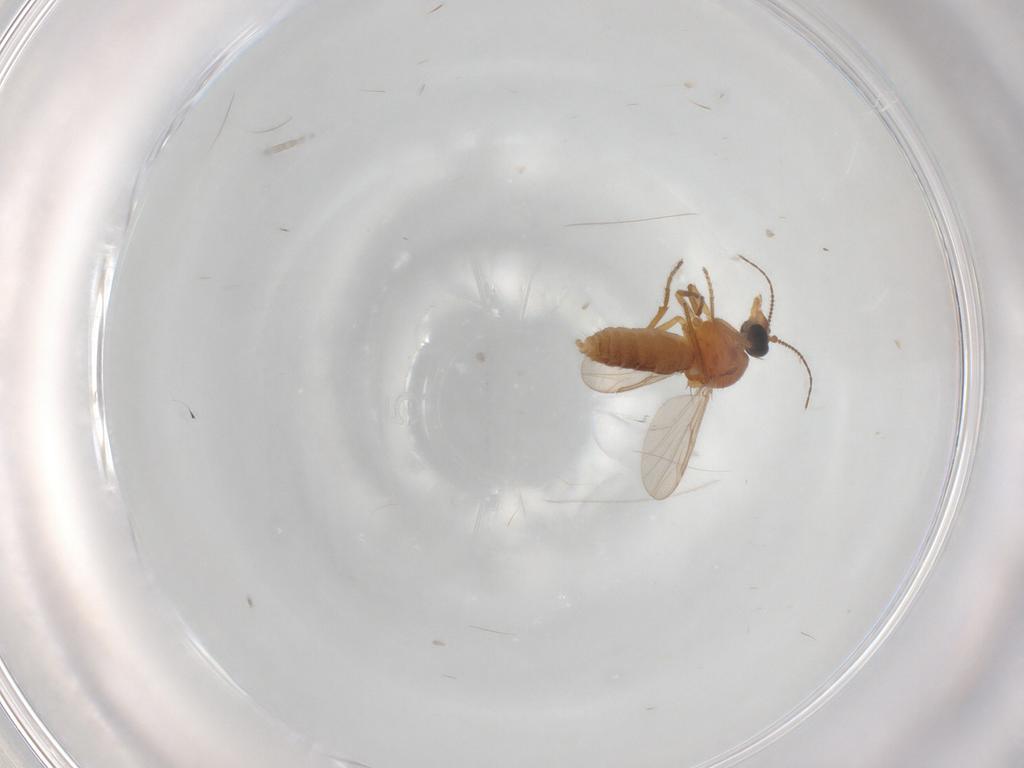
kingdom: Animalia
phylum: Arthropoda
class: Insecta
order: Diptera
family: Ceratopogonidae
